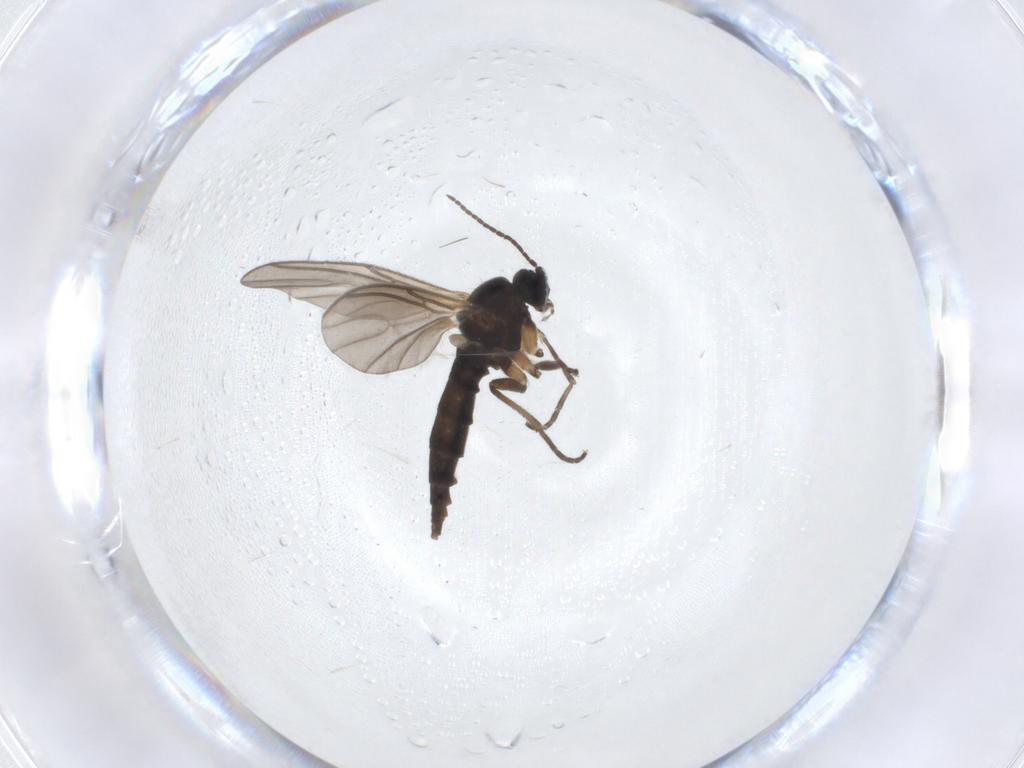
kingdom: Animalia
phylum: Arthropoda
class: Insecta
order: Diptera
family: Sciaridae
